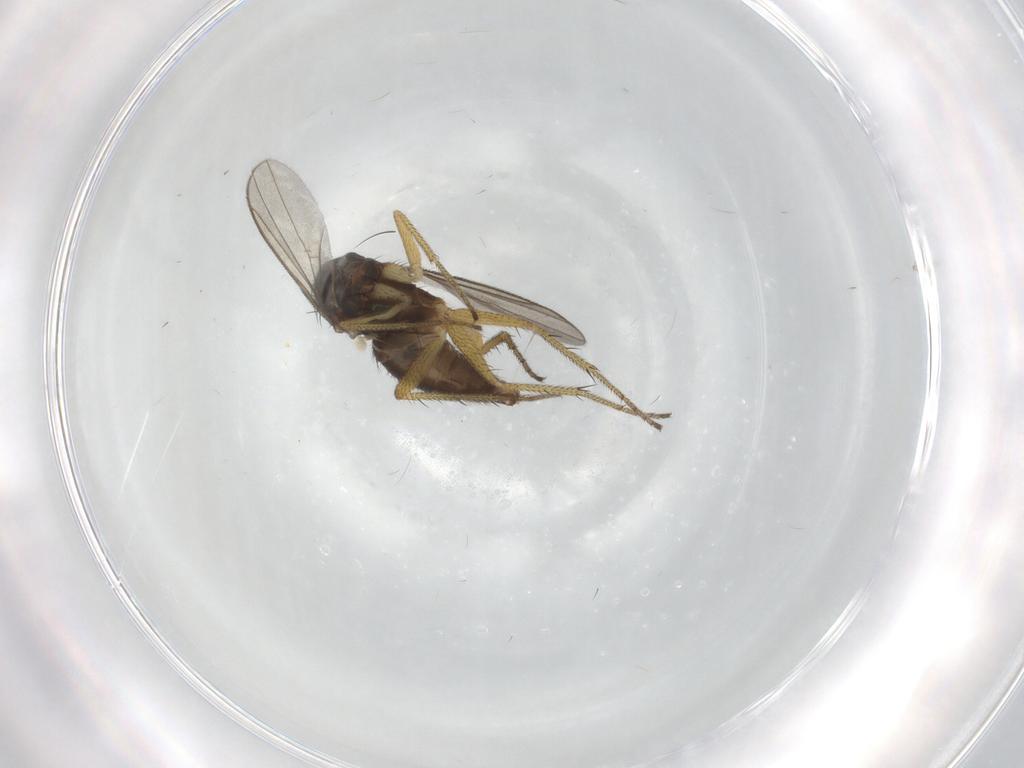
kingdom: Animalia
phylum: Arthropoda
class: Insecta
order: Diptera
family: Dolichopodidae
